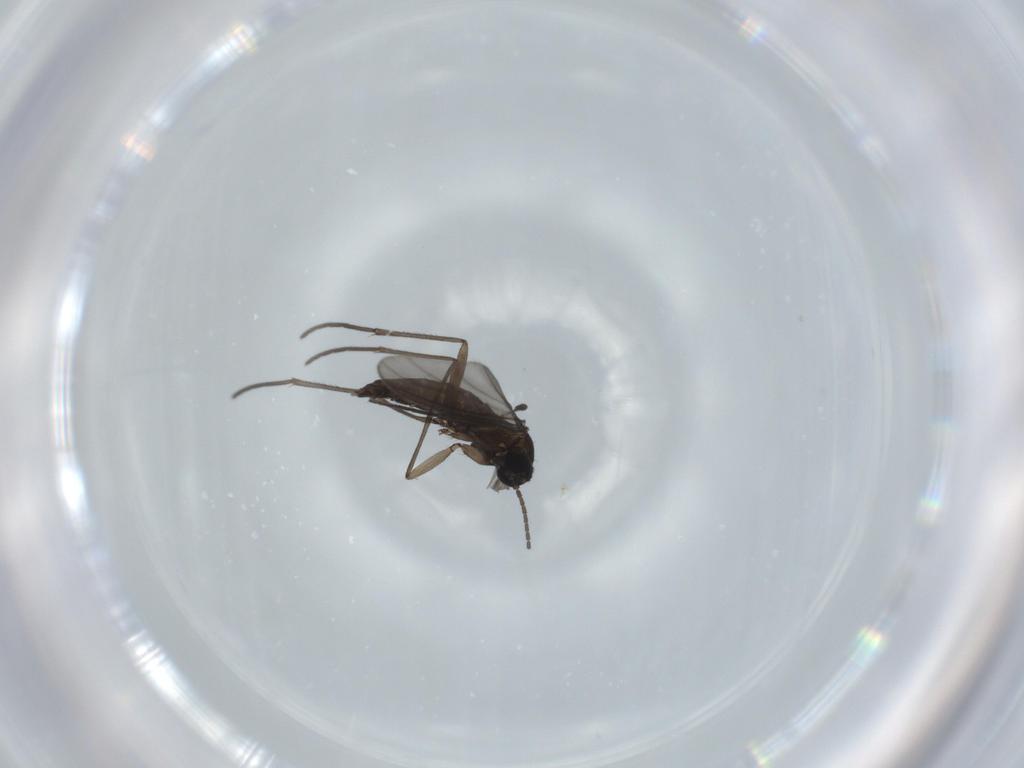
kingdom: Animalia
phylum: Arthropoda
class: Insecta
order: Diptera
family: Sciaridae
